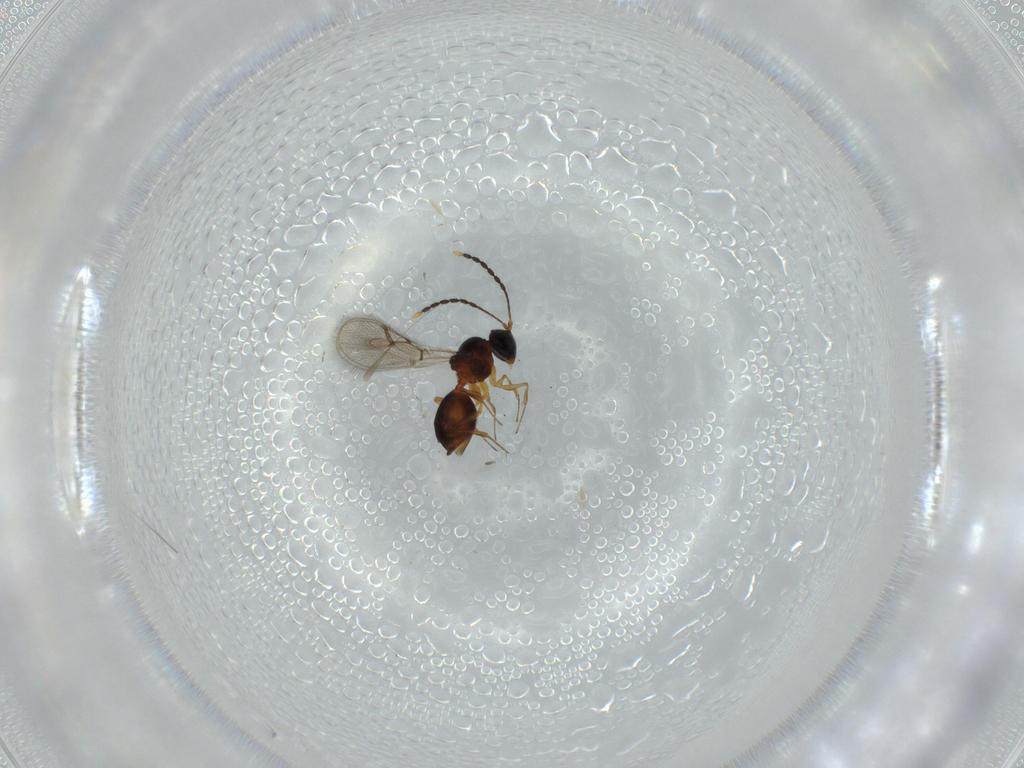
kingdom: Animalia
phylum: Arthropoda
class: Insecta
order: Hymenoptera
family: Figitidae
